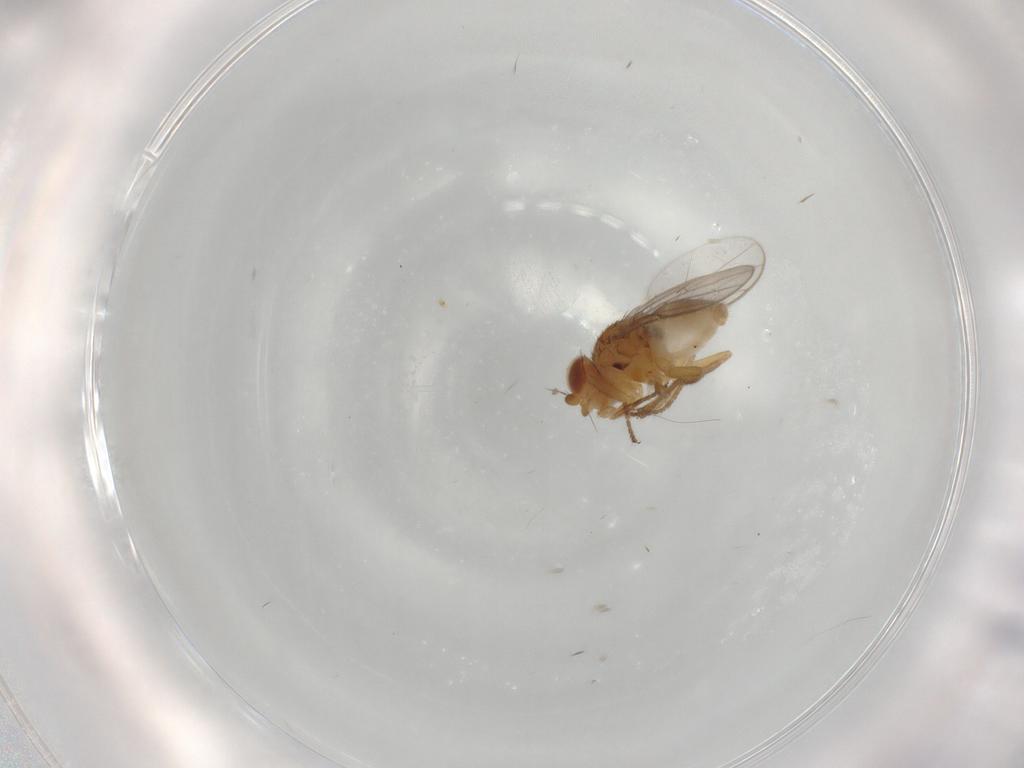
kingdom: Animalia
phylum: Arthropoda
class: Insecta
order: Diptera
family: Chloropidae
